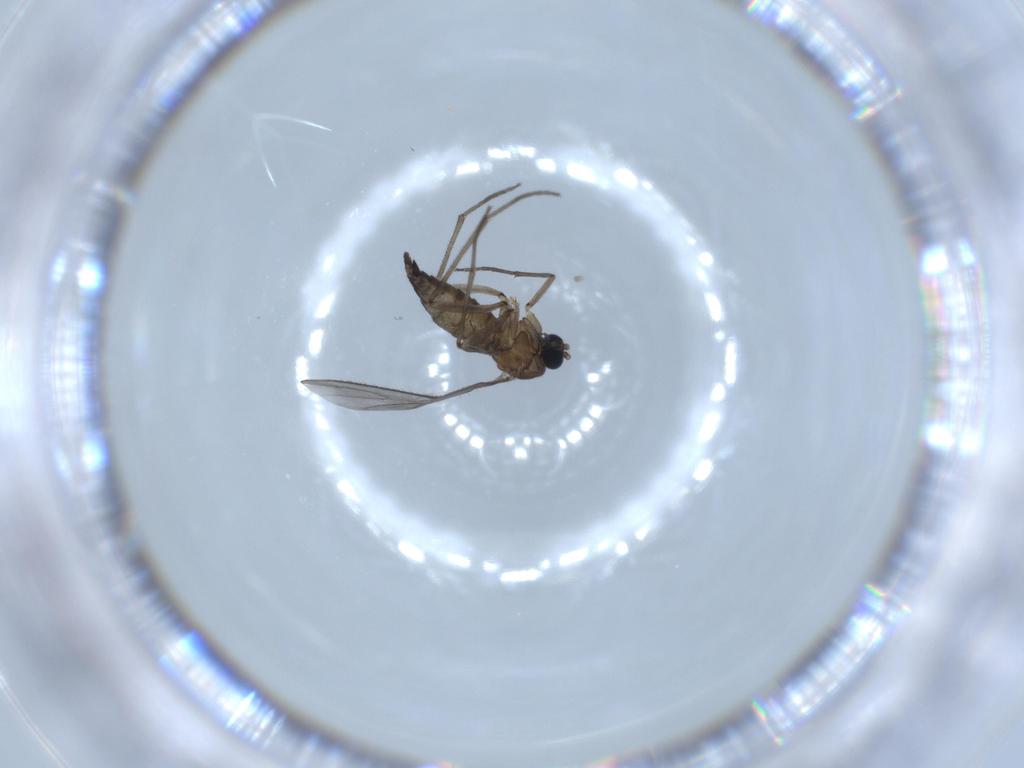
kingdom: Animalia
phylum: Arthropoda
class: Insecta
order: Diptera
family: Sciaridae
